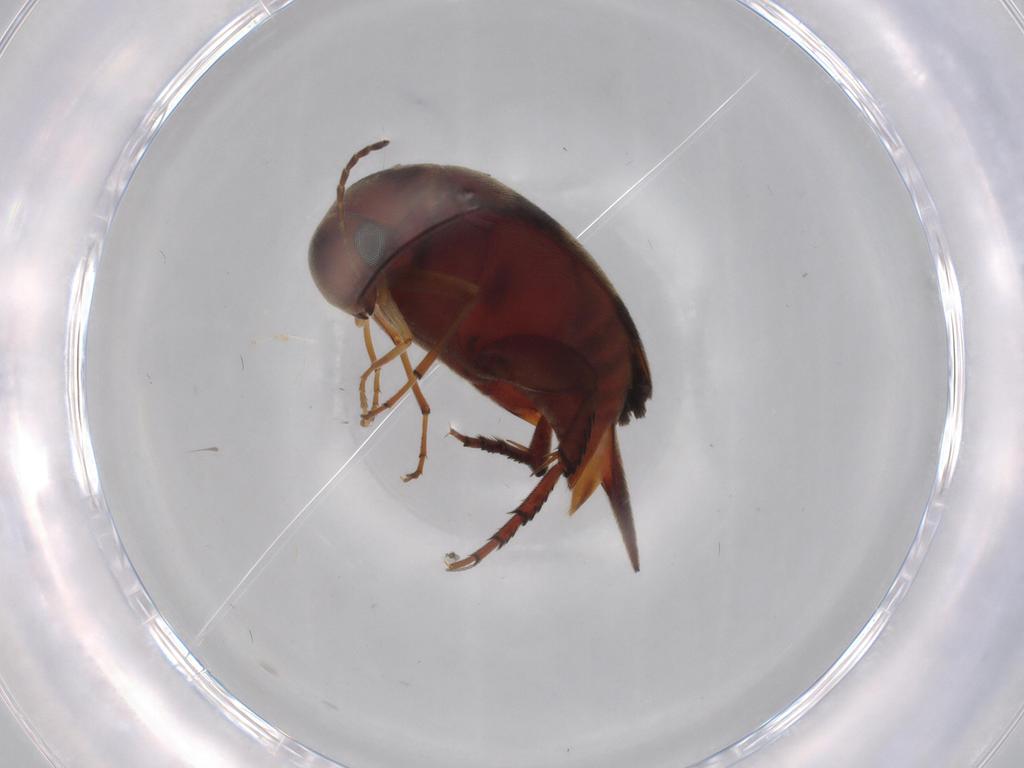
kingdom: Animalia
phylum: Arthropoda
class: Insecta
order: Coleoptera
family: Mordellidae
